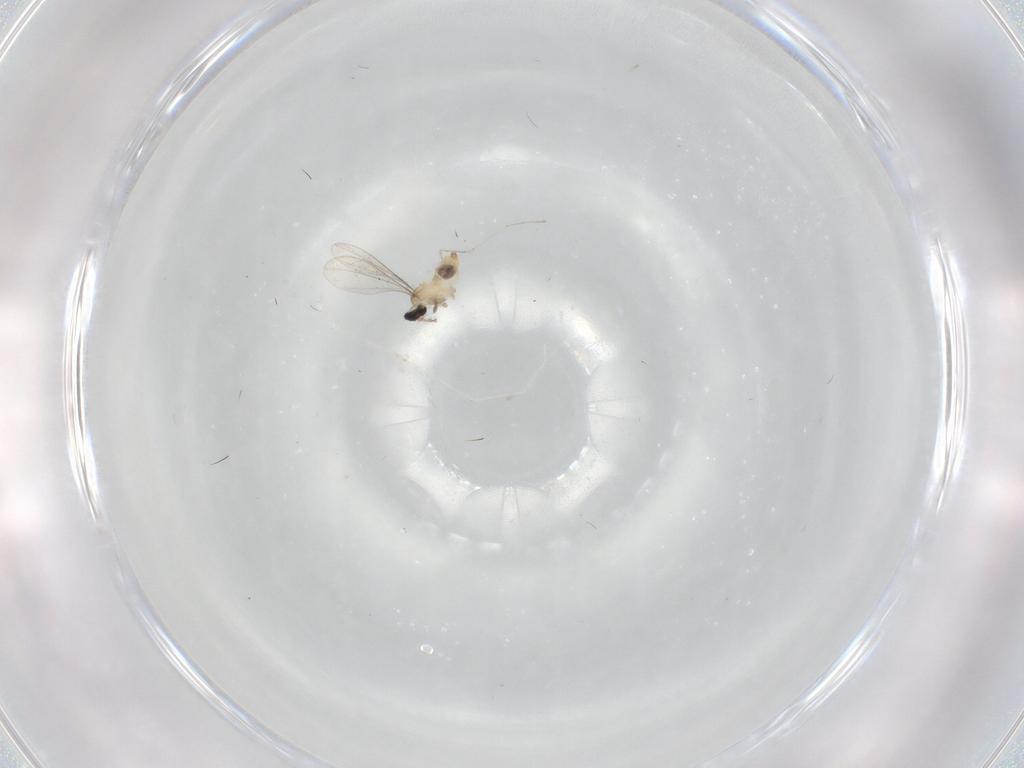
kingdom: Animalia
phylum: Arthropoda
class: Insecta
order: Diptera
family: Cecidomyiidae
